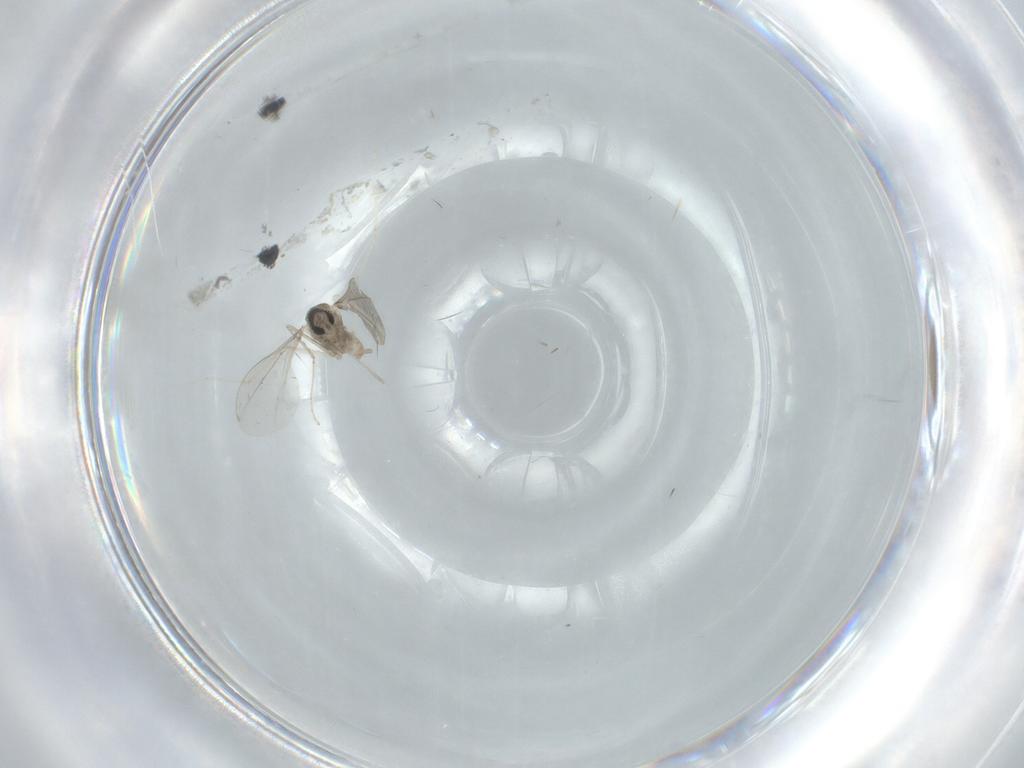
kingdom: Animalia
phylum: Arthropoda
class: Insecta
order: Diptera
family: Cecidomyiidae
